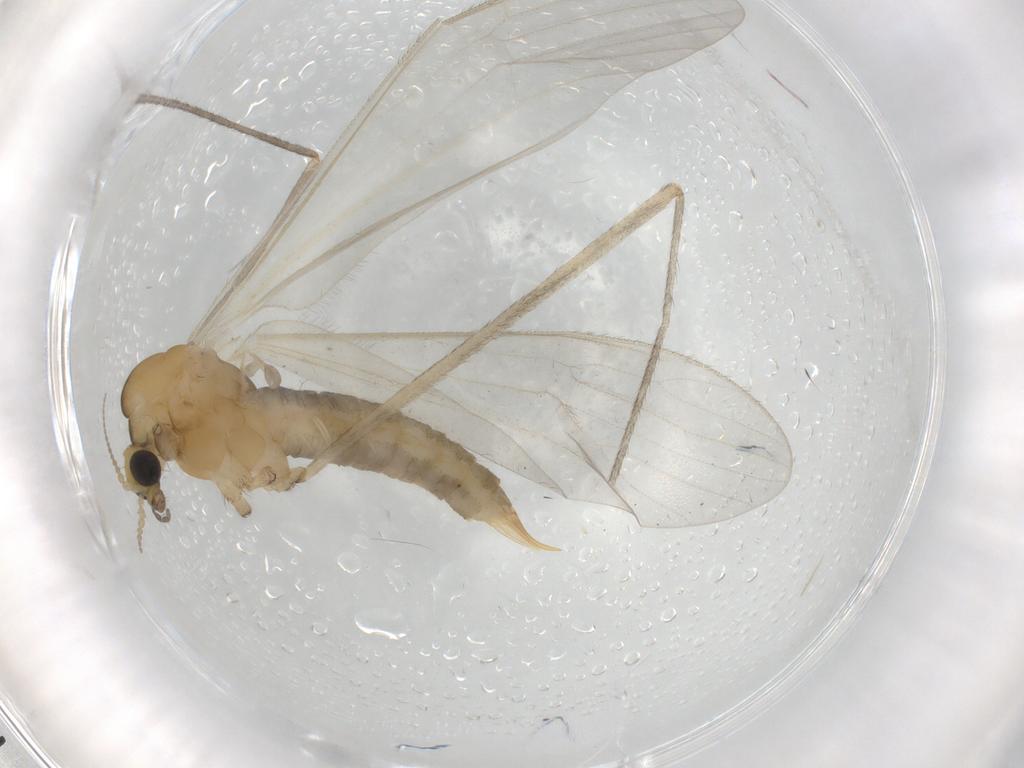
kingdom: Animalia
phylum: Arthropoda
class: Insecta
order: Diptera
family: Limoniidae
